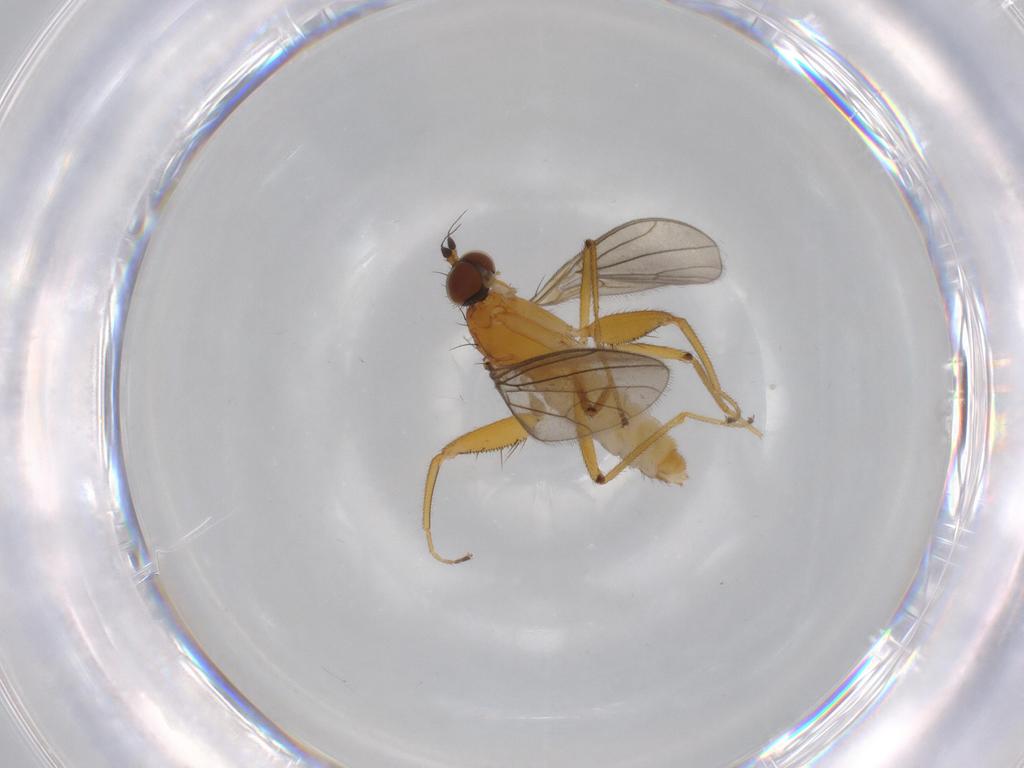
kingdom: Animalia
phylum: Arthropoda
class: Insecta
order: Diptera
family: Empididae
